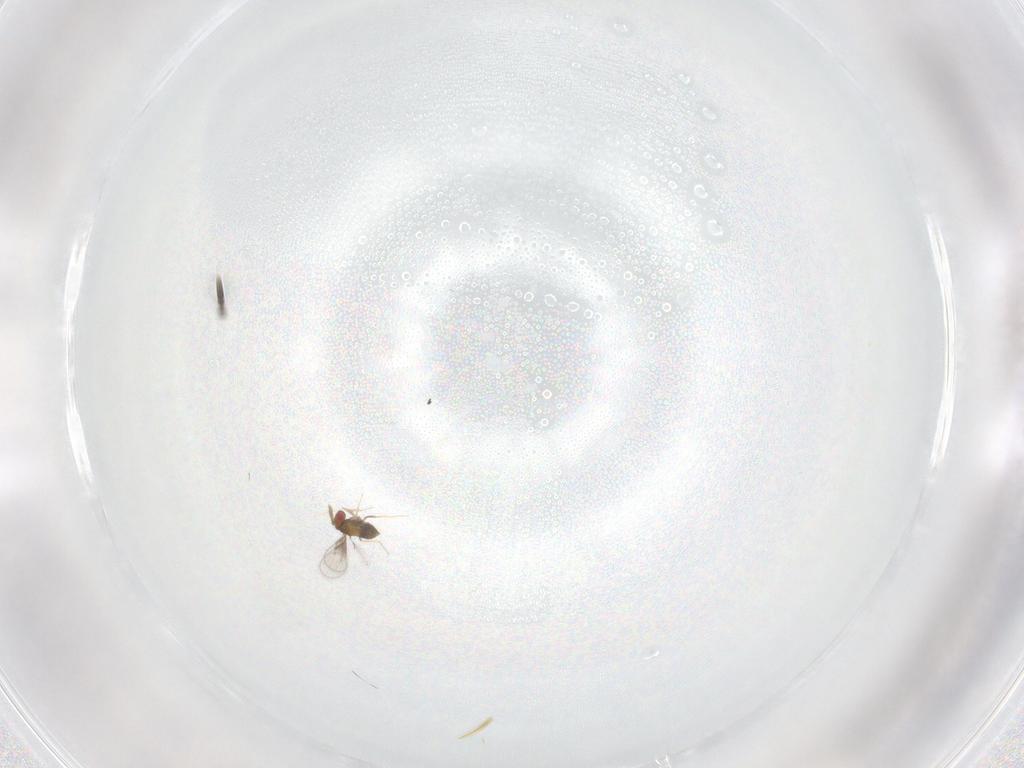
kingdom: Animalia
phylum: Arthropoda
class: Insecta
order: Hymenoptera
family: Trichogrammatidae
